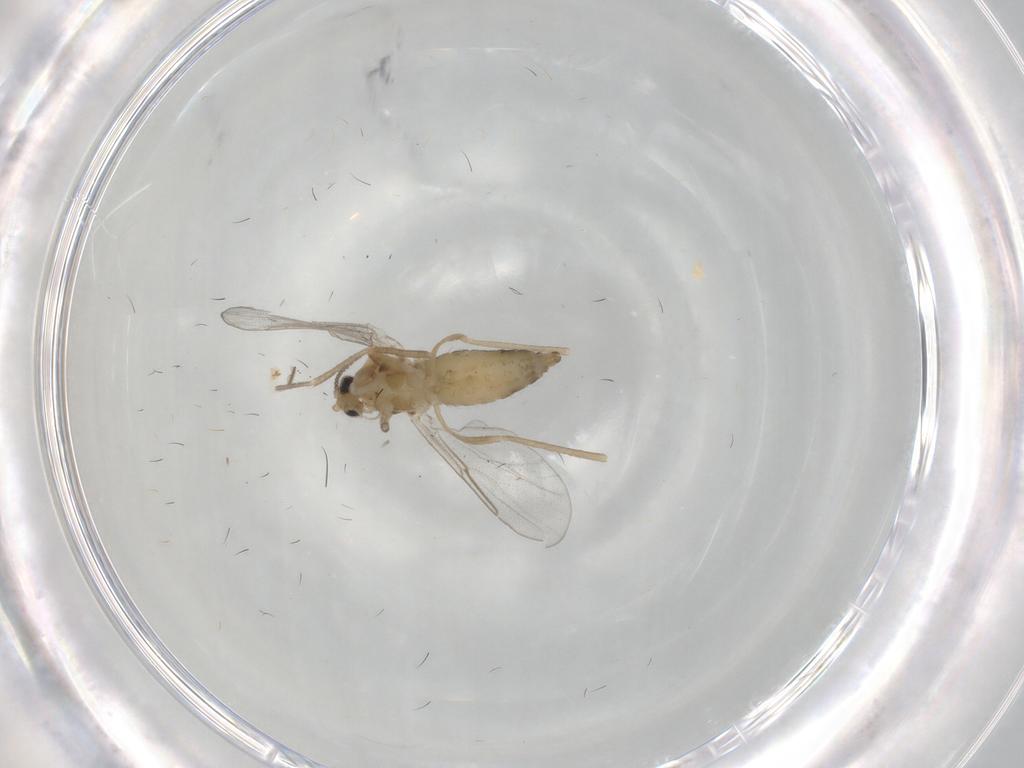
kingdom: Animalia
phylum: Arthropoda
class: Insecta
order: Diptera
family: Cecidomyiidae
